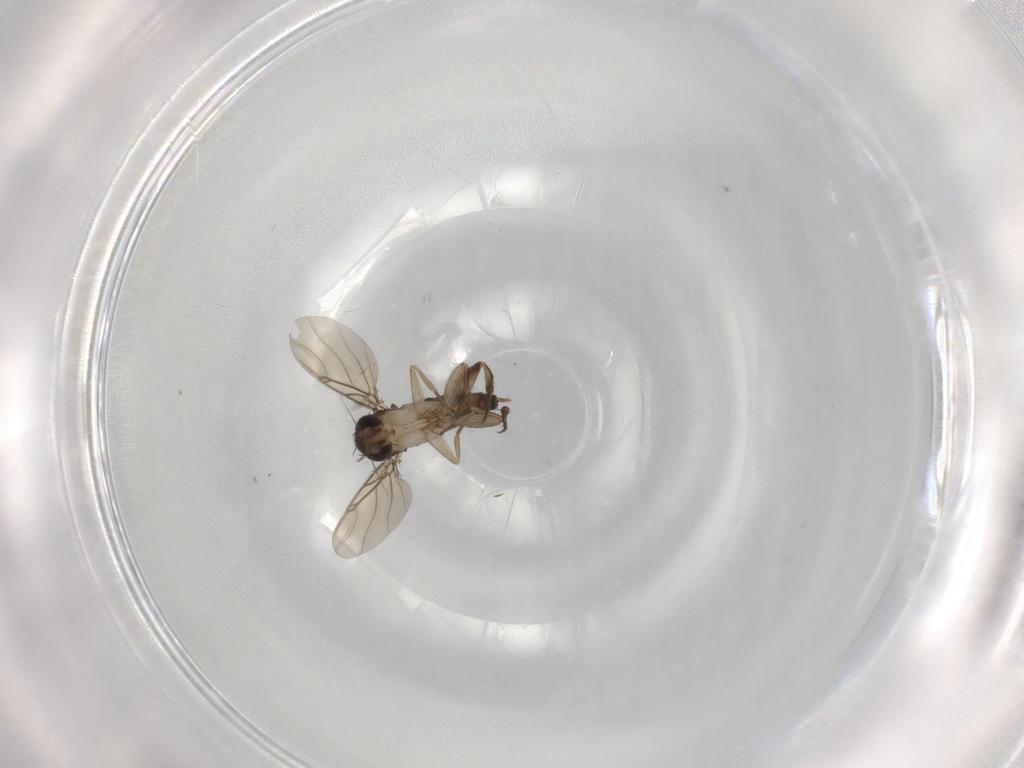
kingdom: Animalia
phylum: Arthropoda
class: Insecta
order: Diptera
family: Phoridae
